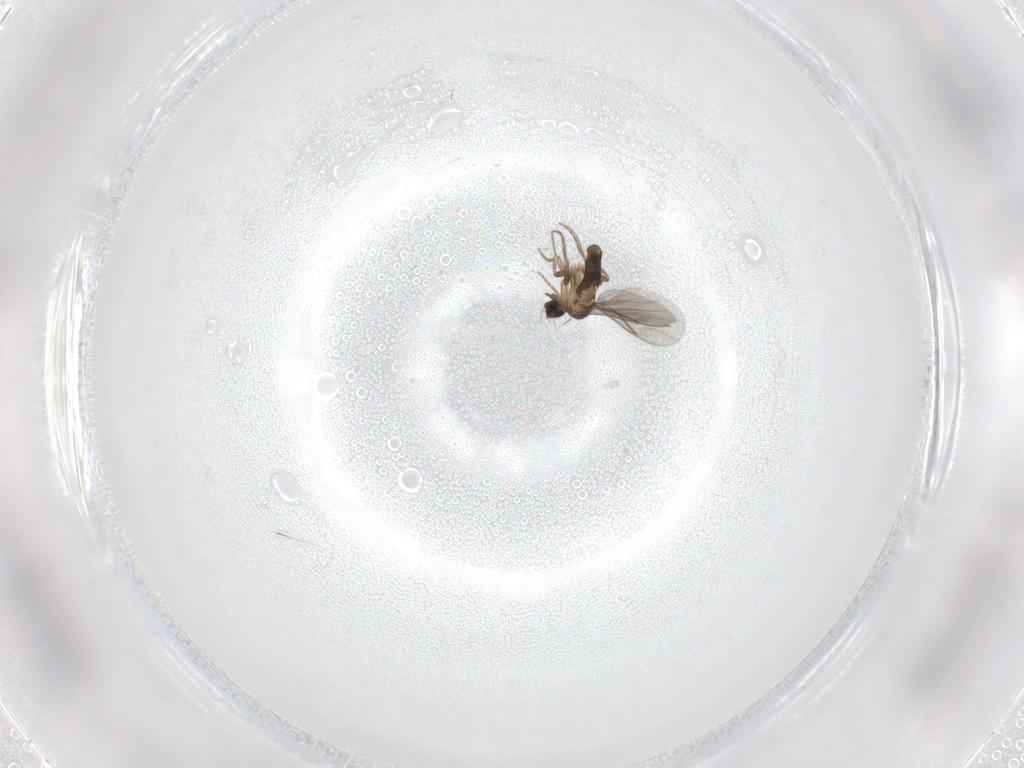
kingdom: Animalia
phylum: Arthropoda
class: Insecta
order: Diptera
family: Phoridae
